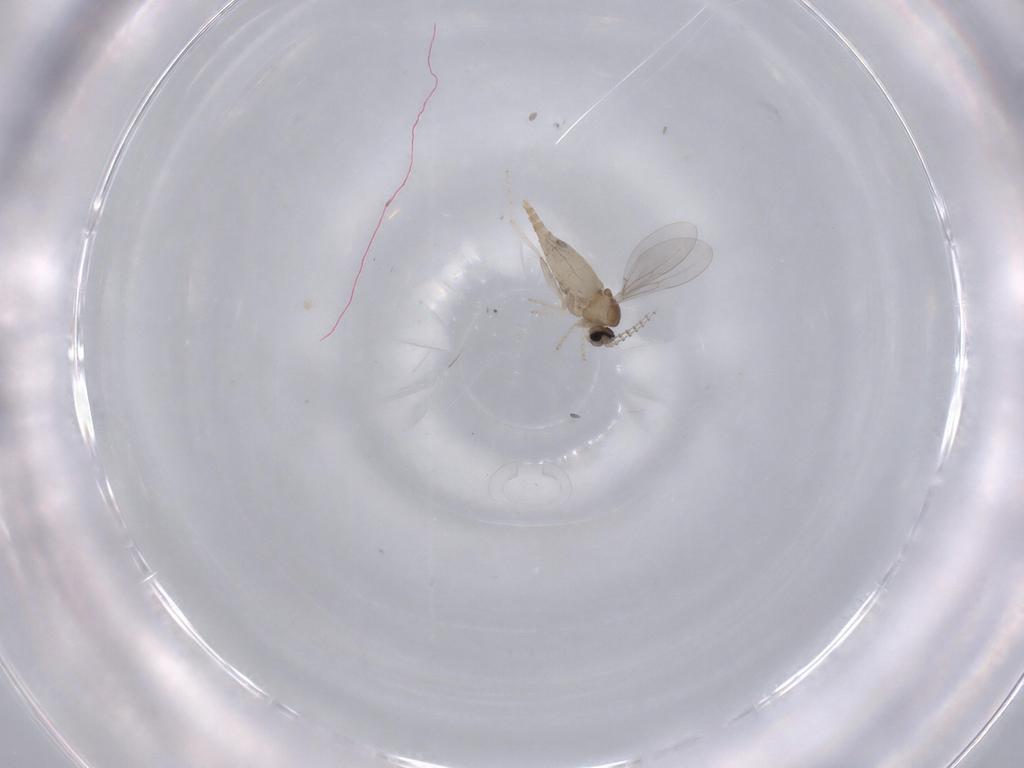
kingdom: Animalia
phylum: Arthropoda
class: Insecta
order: Diptera
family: Cecidomyiidae
